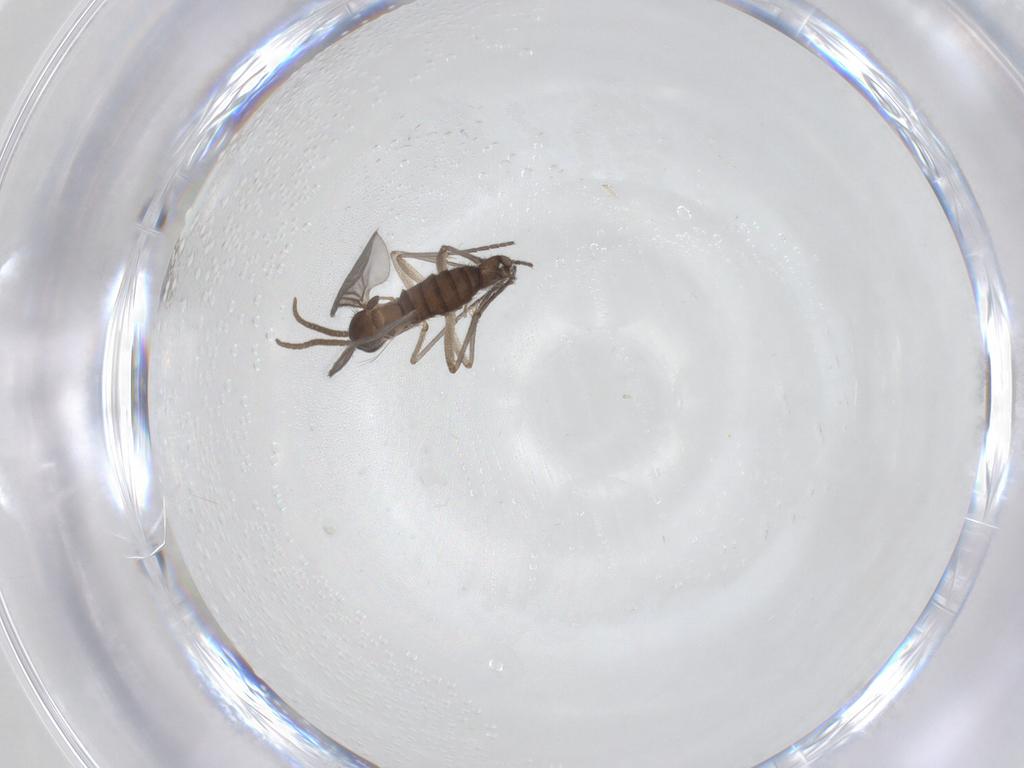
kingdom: Animalia
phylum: Arthropoda
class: Insecta
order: Diptera
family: Chironomidae
